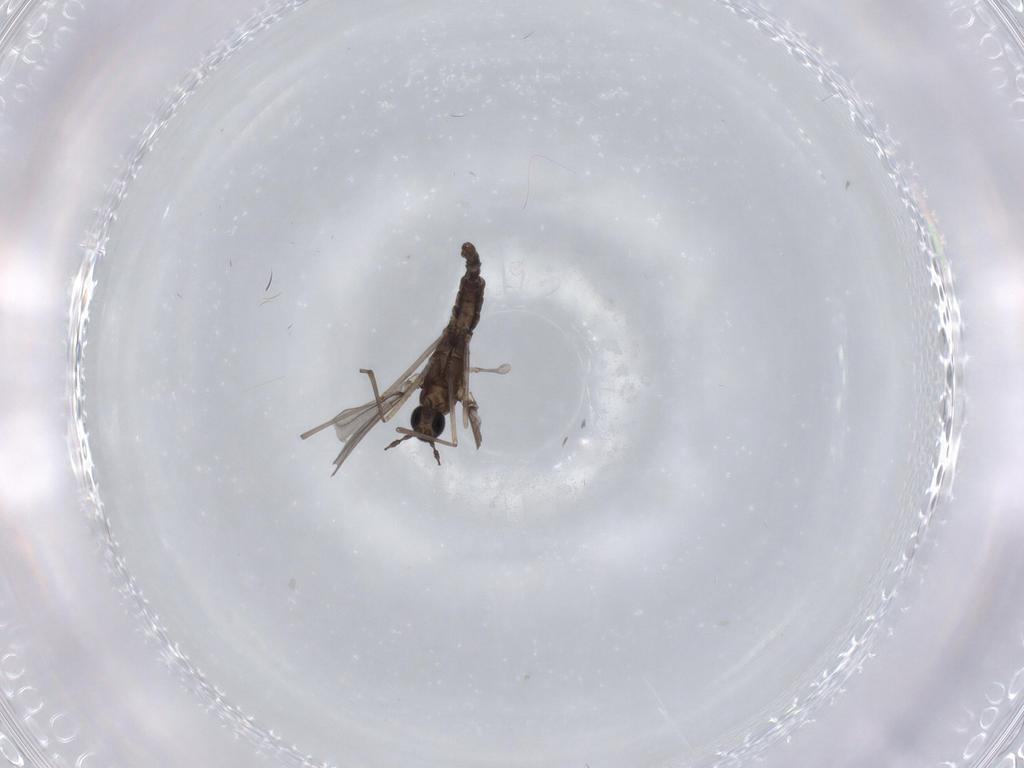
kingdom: Animalia
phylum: Arthropoda
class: Insecta
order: Diptera
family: Cecidomyiidae
